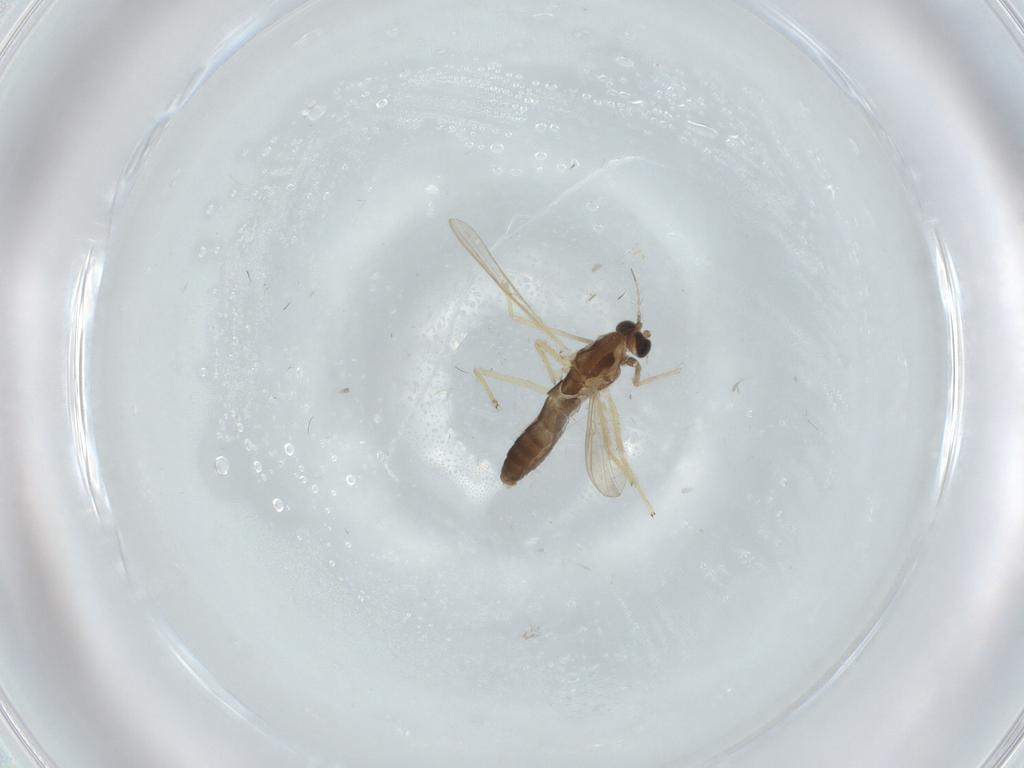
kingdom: Animalia
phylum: Arthropoda
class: Insecta
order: Diptera
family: Chironomidae
